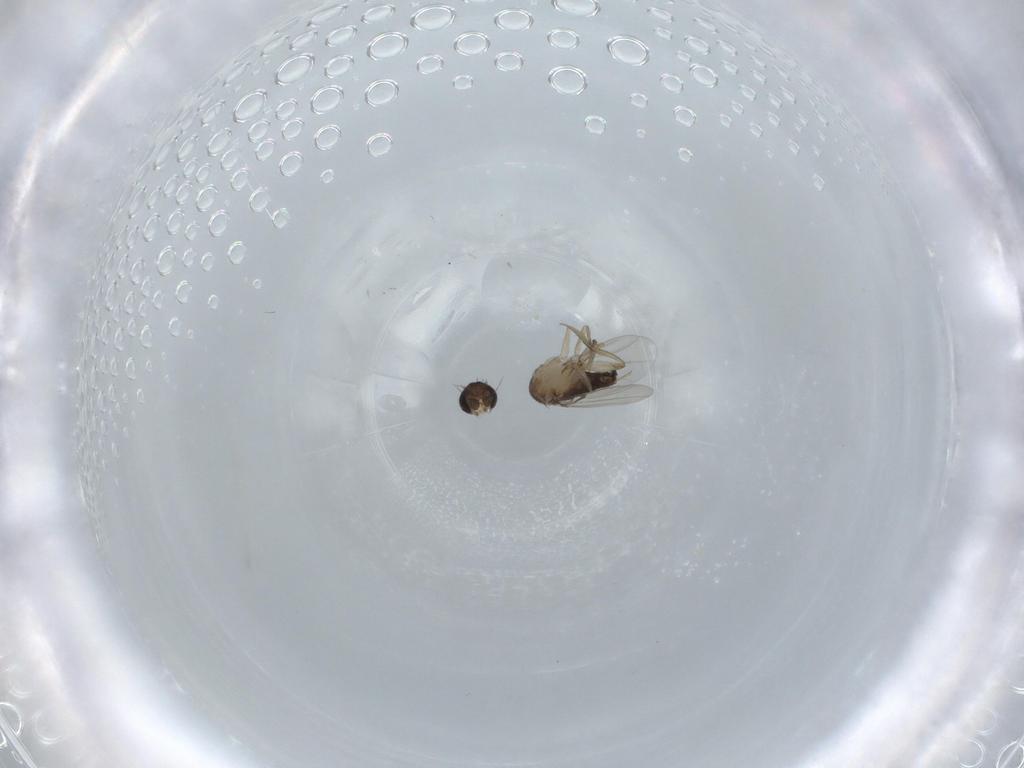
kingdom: Animalia
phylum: Arthropoda
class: Insecta
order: Diptera
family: Phoridae
